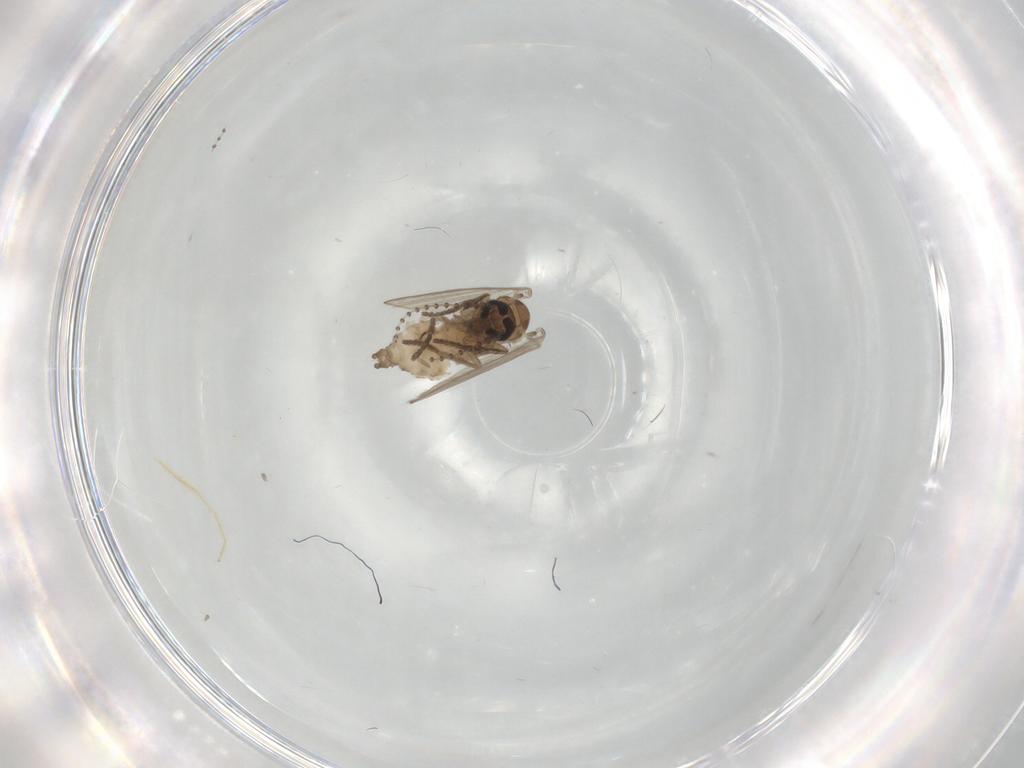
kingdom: Animalia
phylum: Arthropoda
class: Insecta
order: Diptera
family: Psychodidae
